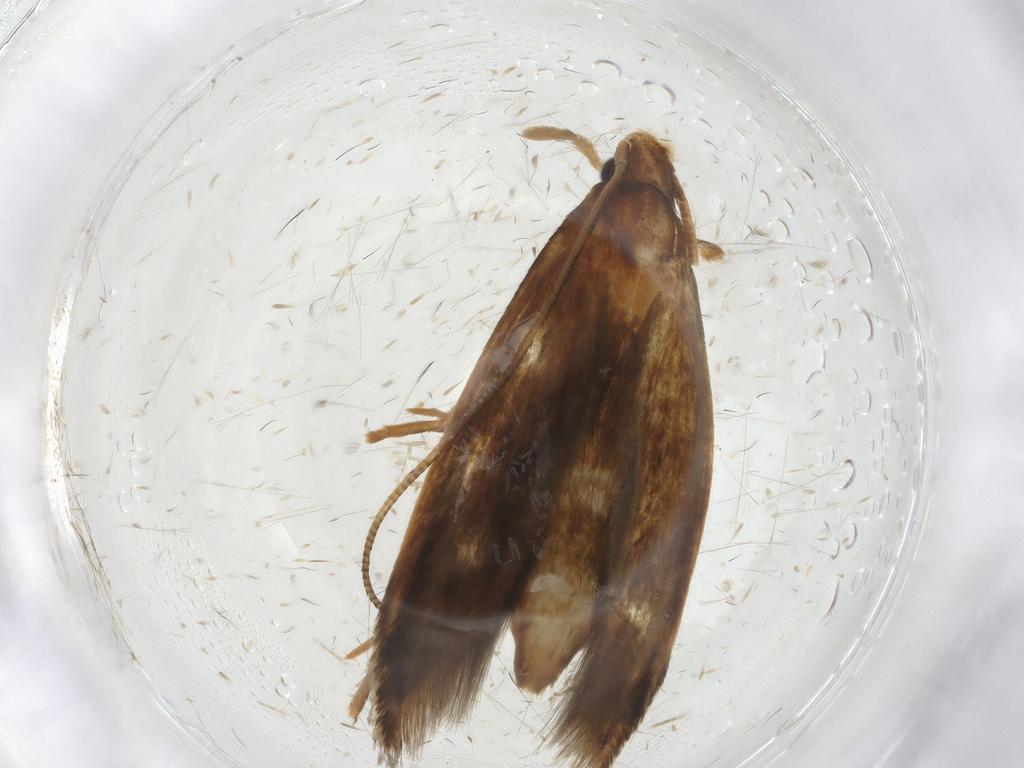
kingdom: Animalia
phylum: Arthropoda
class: Insecta
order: Lepidoptera
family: Tineidae
